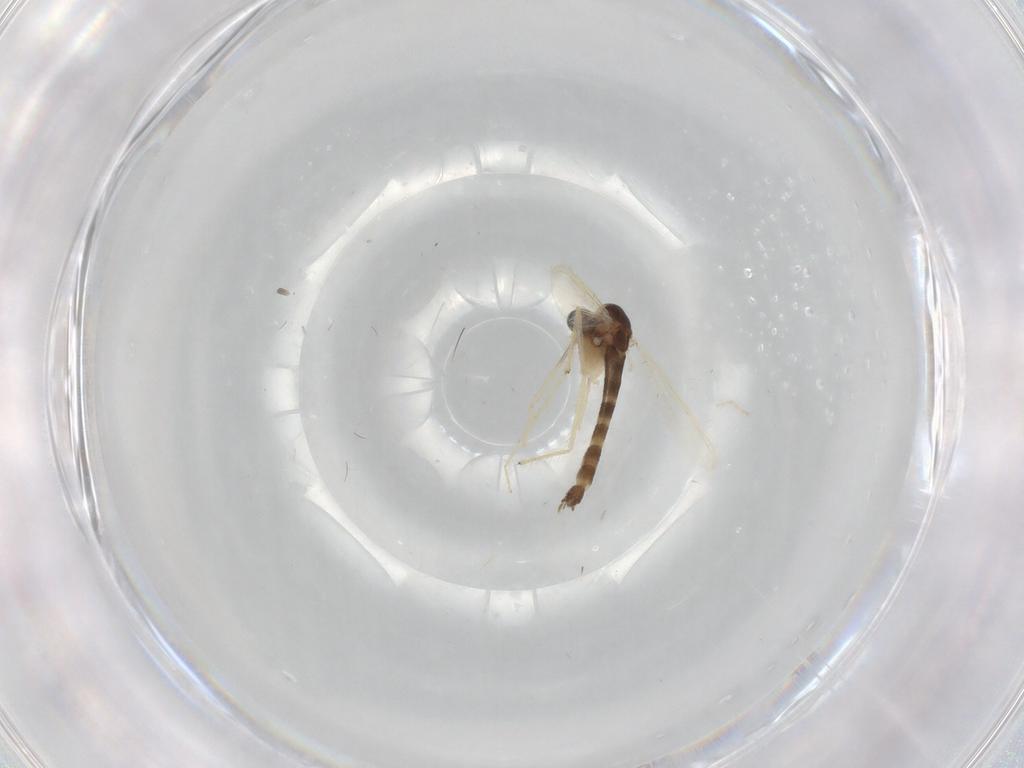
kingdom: Animalia
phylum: Arthropoda
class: Insecta
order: Diptera
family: Chironomidae
